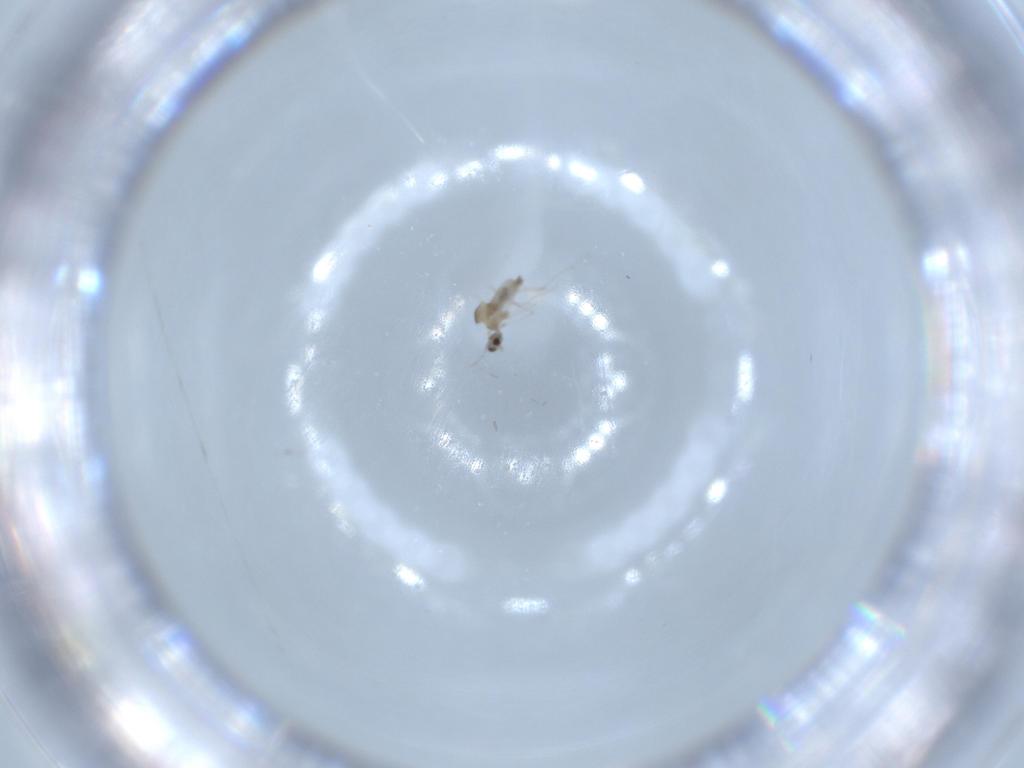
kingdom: Animalia
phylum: Arthropoda
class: Insecta
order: Diptera
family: Cecidomyiidae
